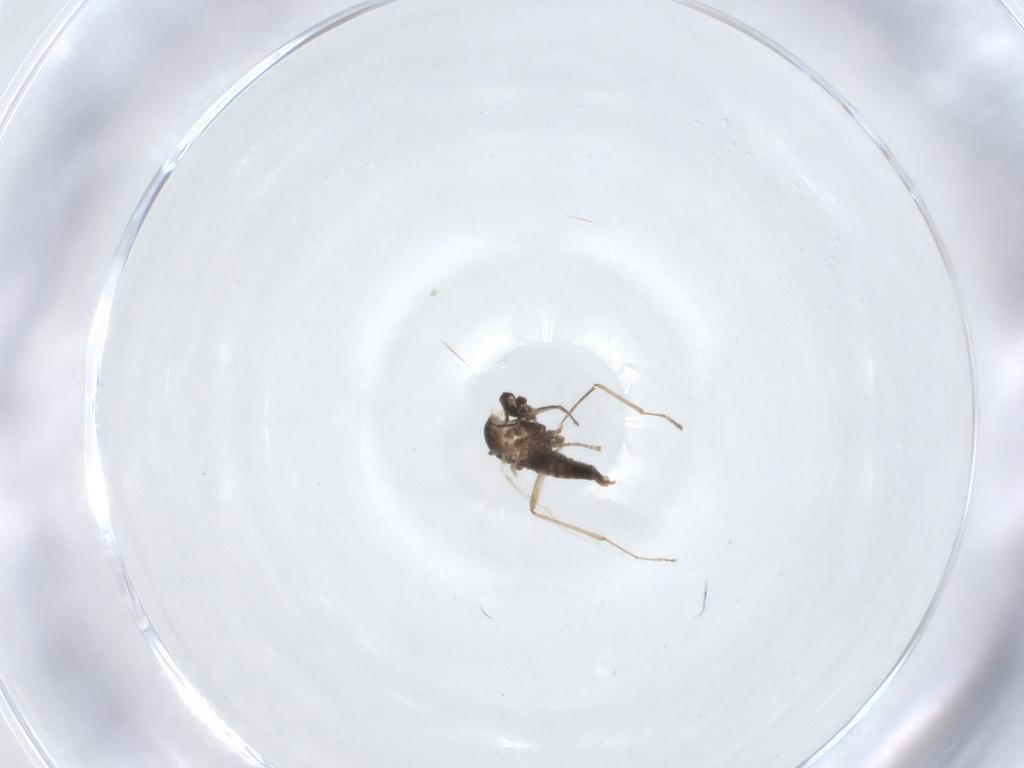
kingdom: Animalia
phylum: Arthropoda
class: Insecta
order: Diptera
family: Cecidomyiidae
